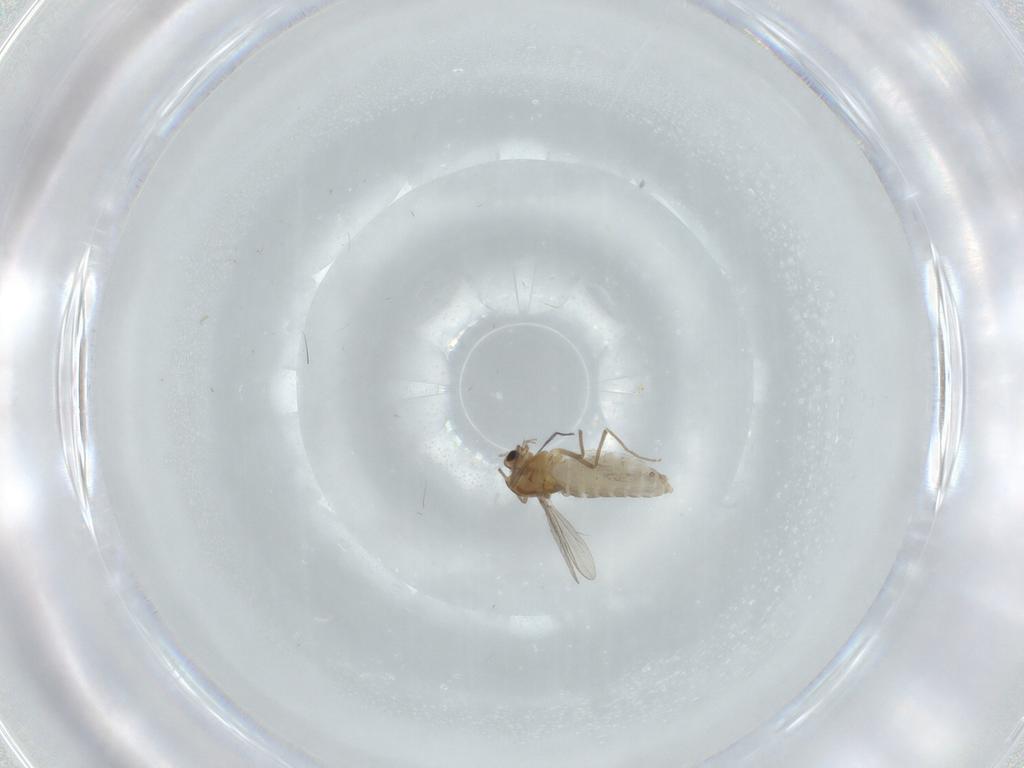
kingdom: Animalia
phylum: Arthropoda
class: Insecta
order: Diptera
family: Chironomidae
